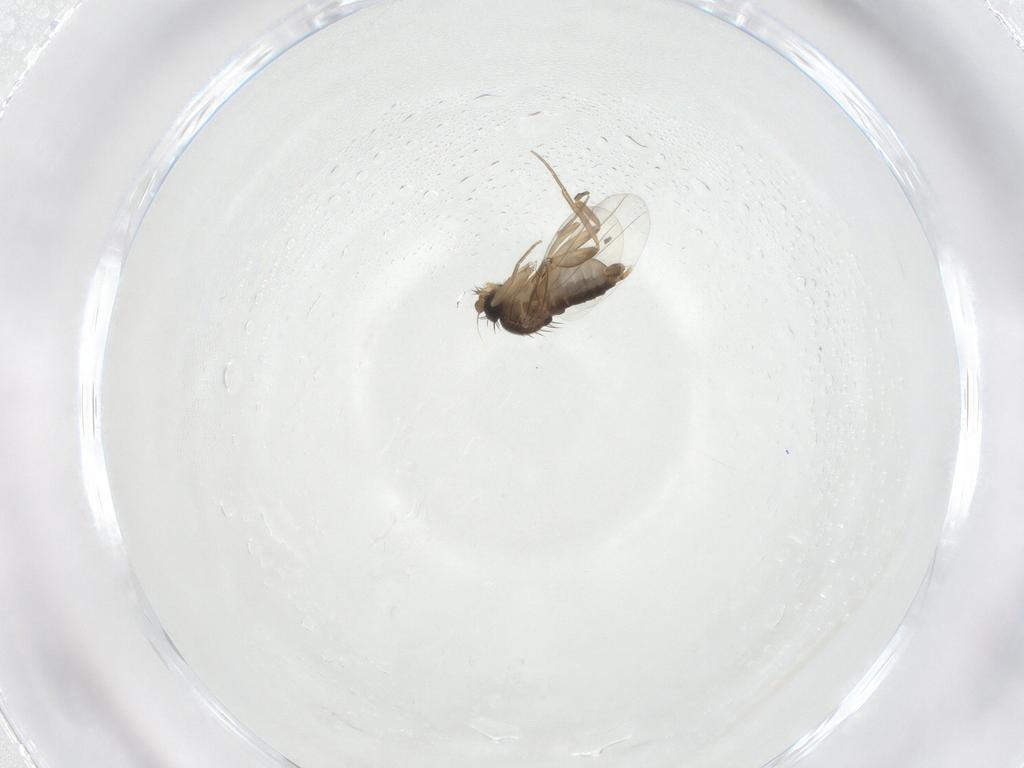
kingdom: Animalia
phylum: Arthropoda
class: Insecta
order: Diptera
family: Phoridae
